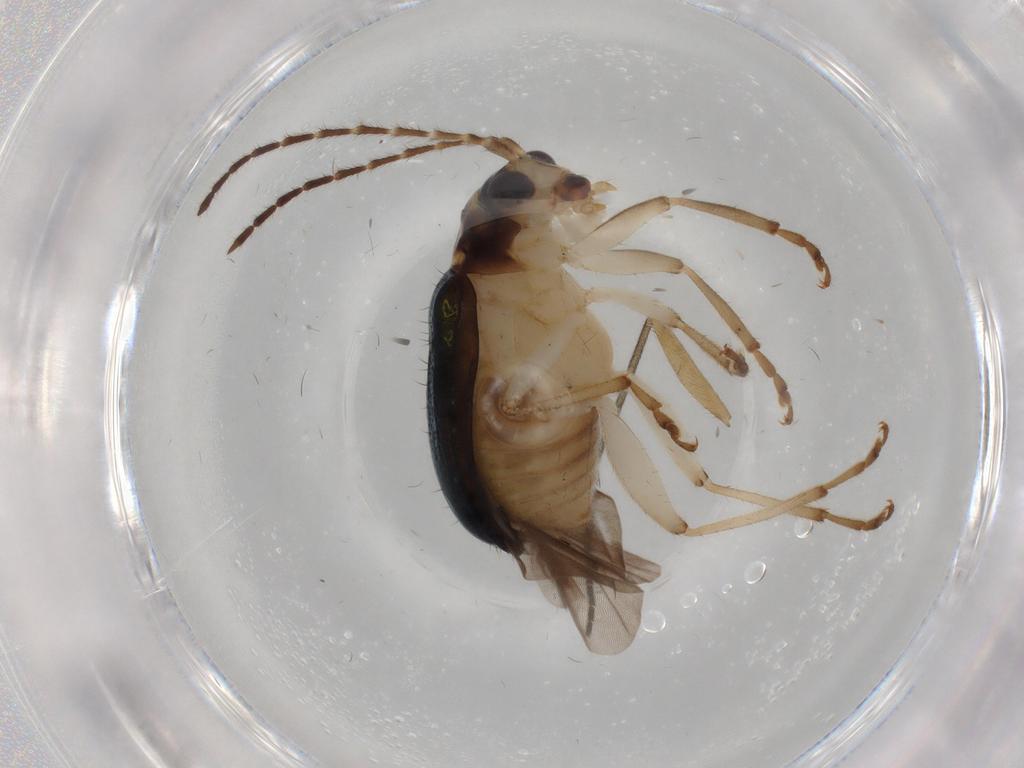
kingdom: Animalia
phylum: Arthropoda
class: Insecta
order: Coleoptera
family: Chrysomelidae
